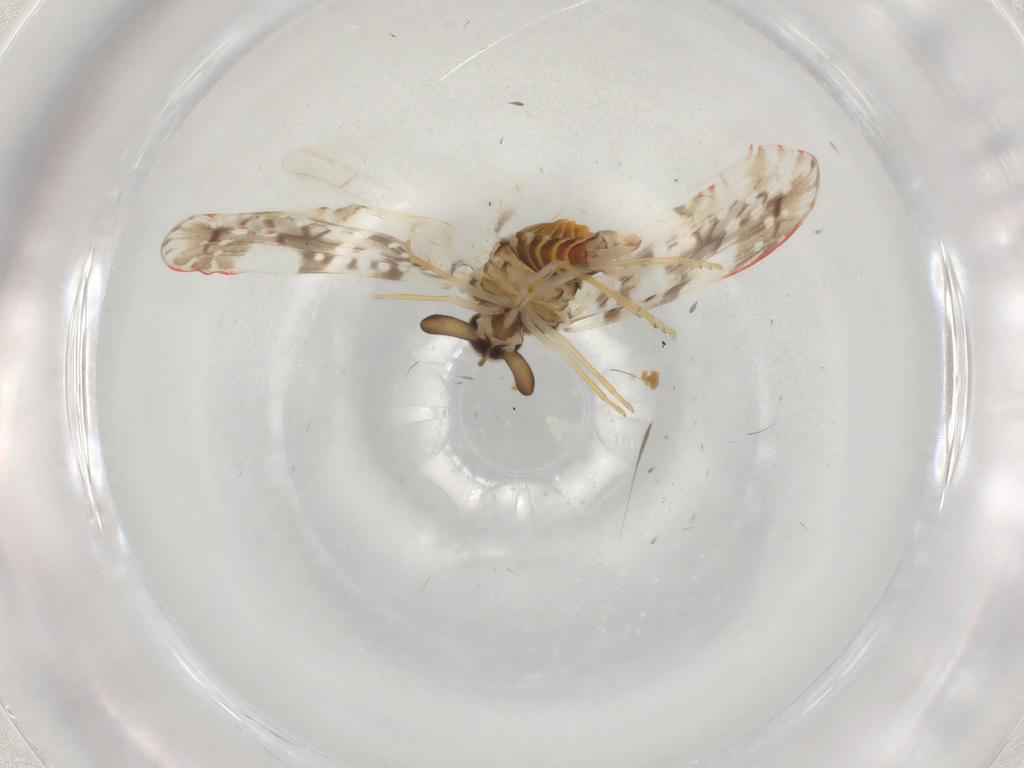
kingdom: Animalia
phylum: Arthropoda
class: Insecta
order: Hemiptera
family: Derbidae
